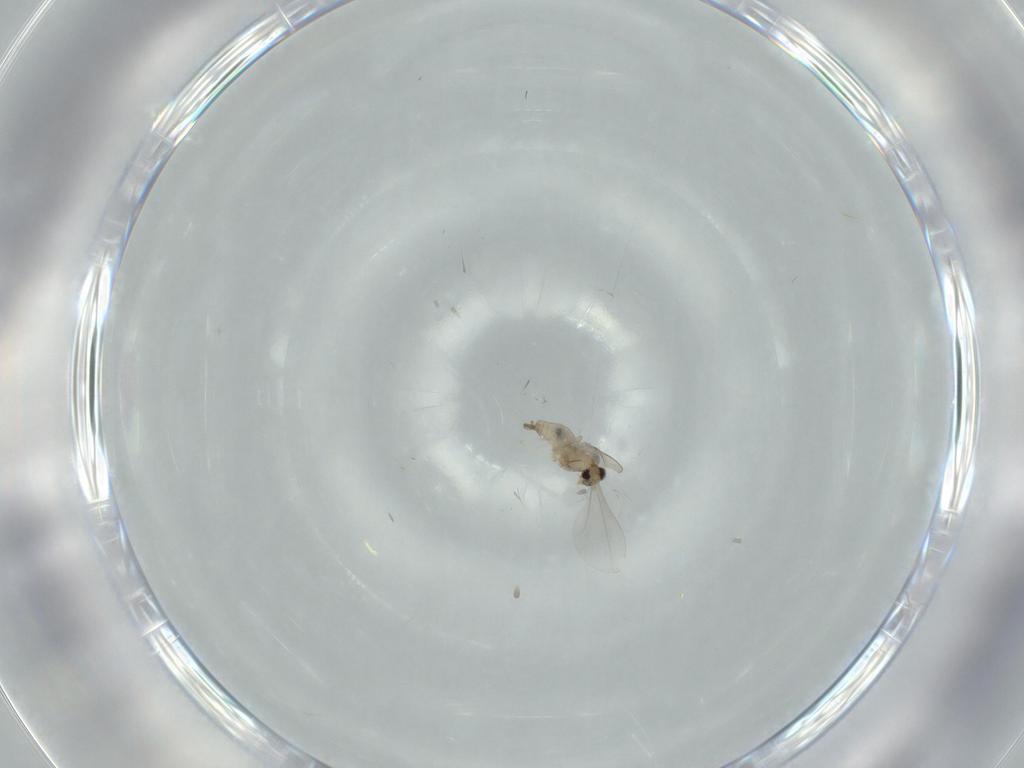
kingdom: Animalia
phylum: Arthropoda
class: Insecta
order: Diptera
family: Cecidomyiidae
